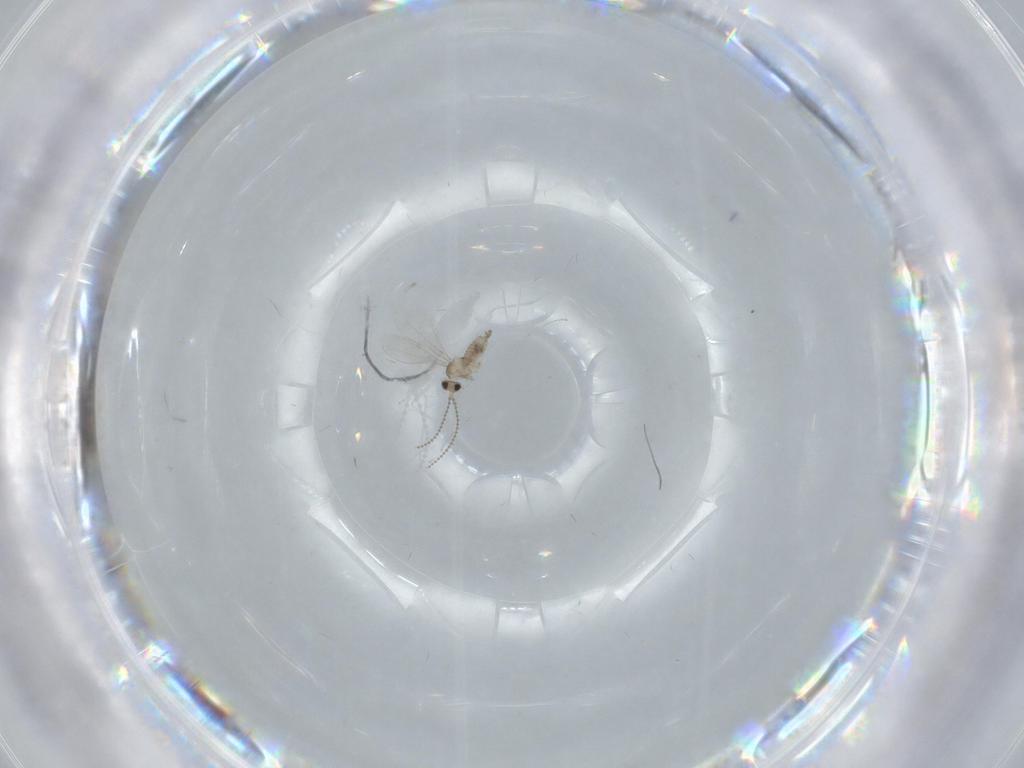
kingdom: Animalia
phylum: Arthropoda
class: Insecta
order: Diptera
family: Cecidomyiidae
